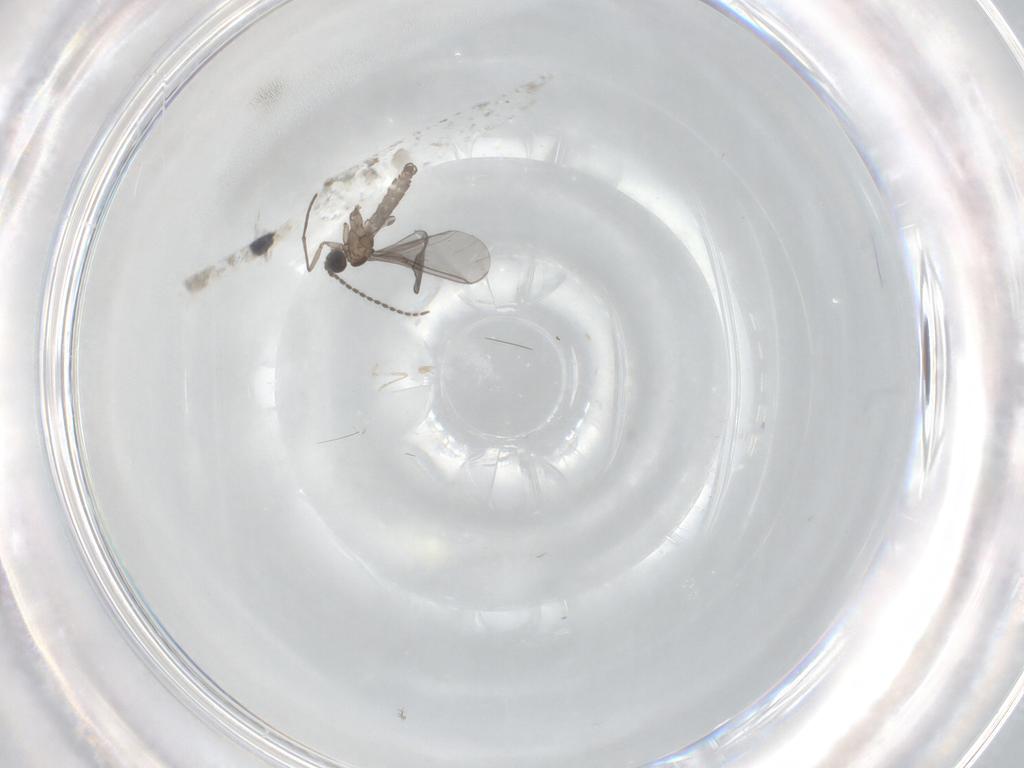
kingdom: Animalia
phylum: Arthropoda
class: Insecta
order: Diptera
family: Sciaridae
